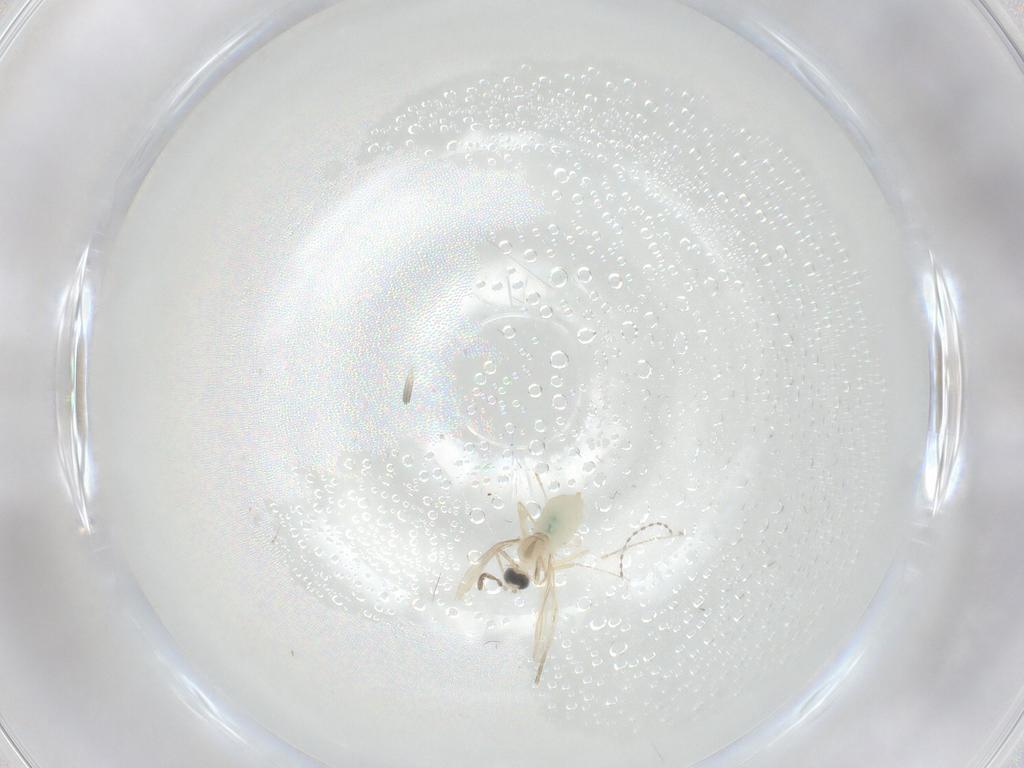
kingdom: Animalia
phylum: Arthropoda
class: Insecta
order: Diptera
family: Cecidomyiidae
